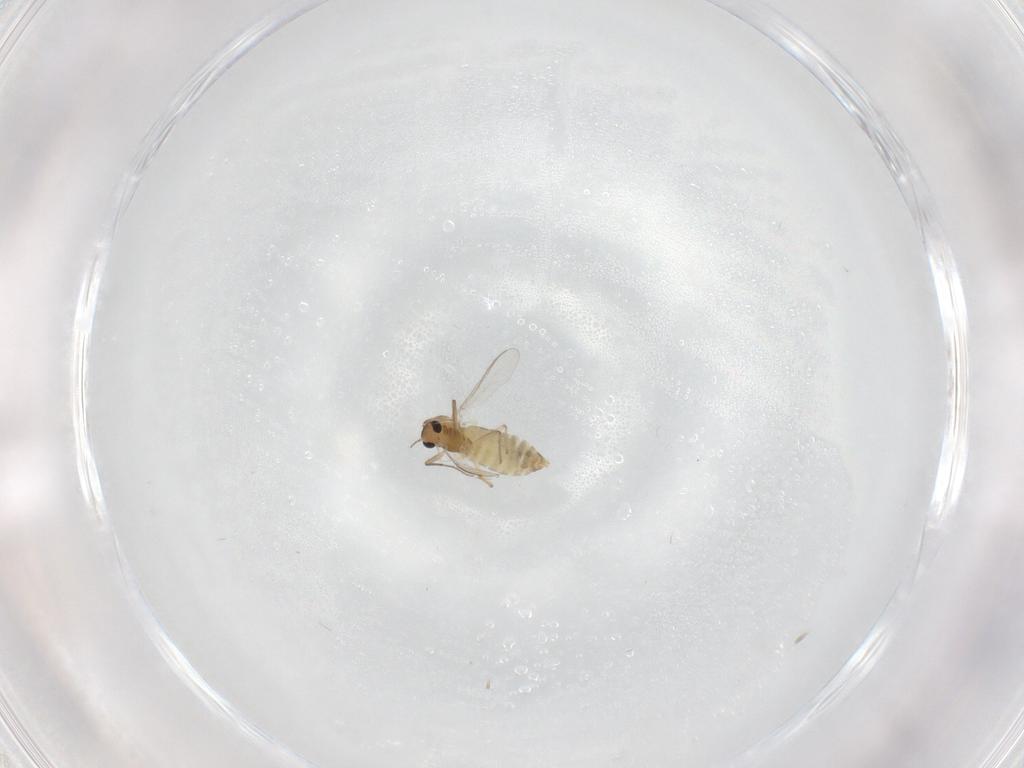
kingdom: Animalia
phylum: Arthropoda
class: Insecta
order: Diptera
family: Chironomidae
